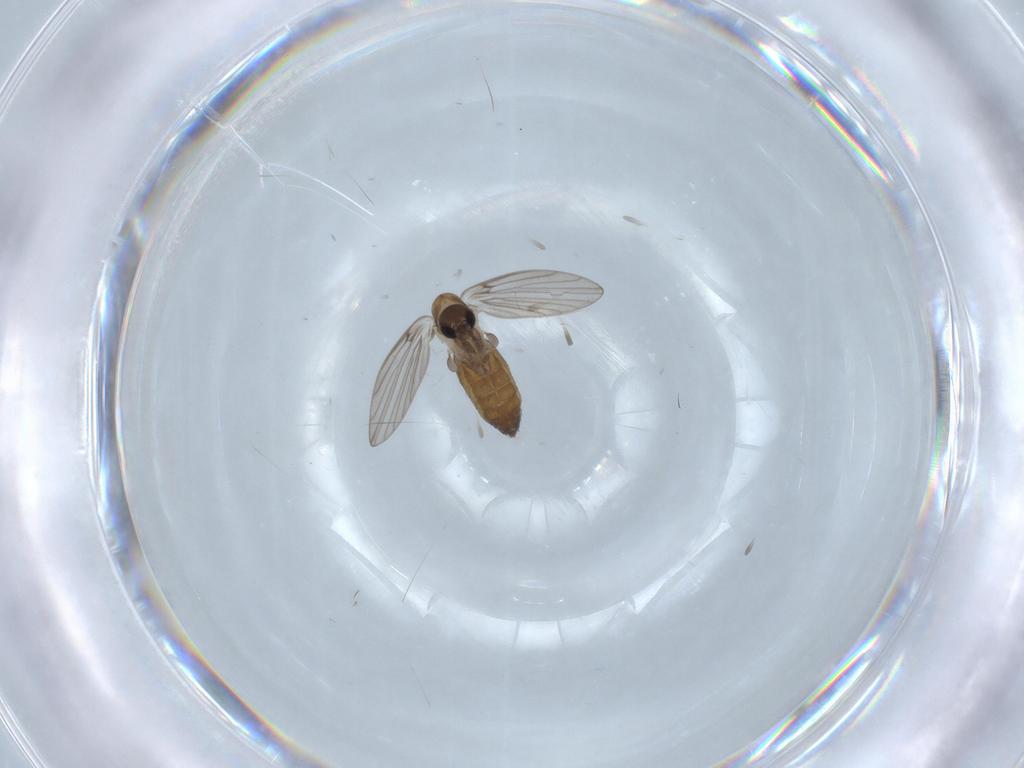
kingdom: Animalia
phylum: Arthropoda
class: Insecta
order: Diptera
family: Psychodidae
